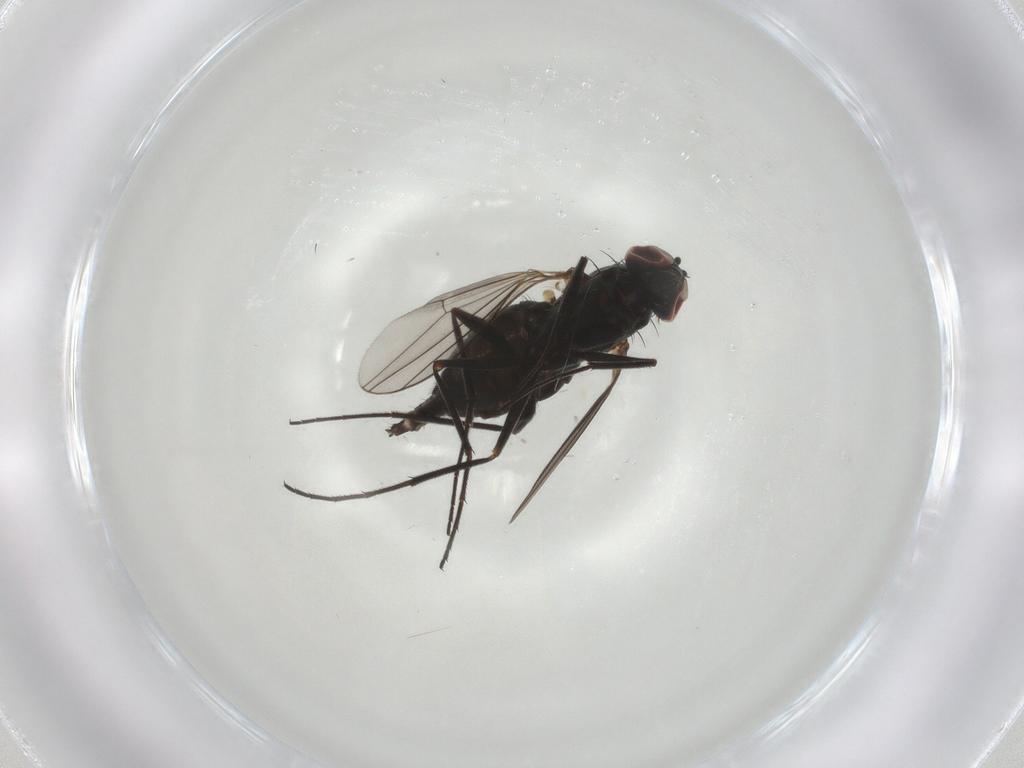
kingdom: Animalia
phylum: Arthropoda
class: Insecta
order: Diptera
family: Dolichopodidae
